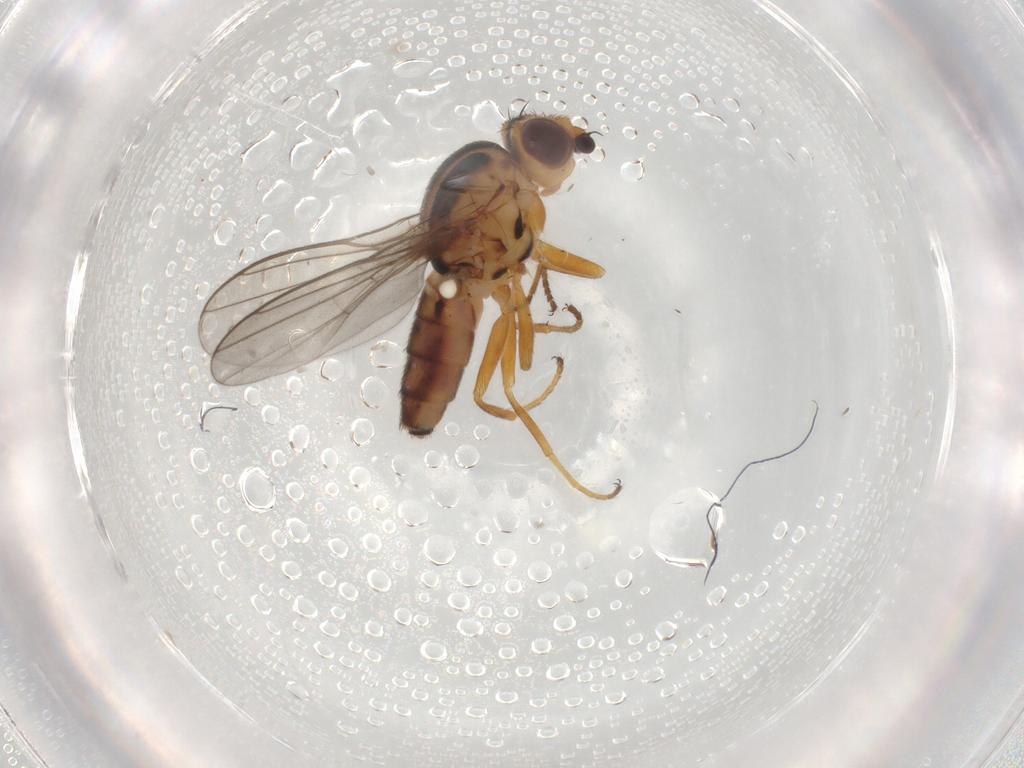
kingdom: Animalia
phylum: Arthropoda
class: Insecta
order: Diptera
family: Chloropidae
